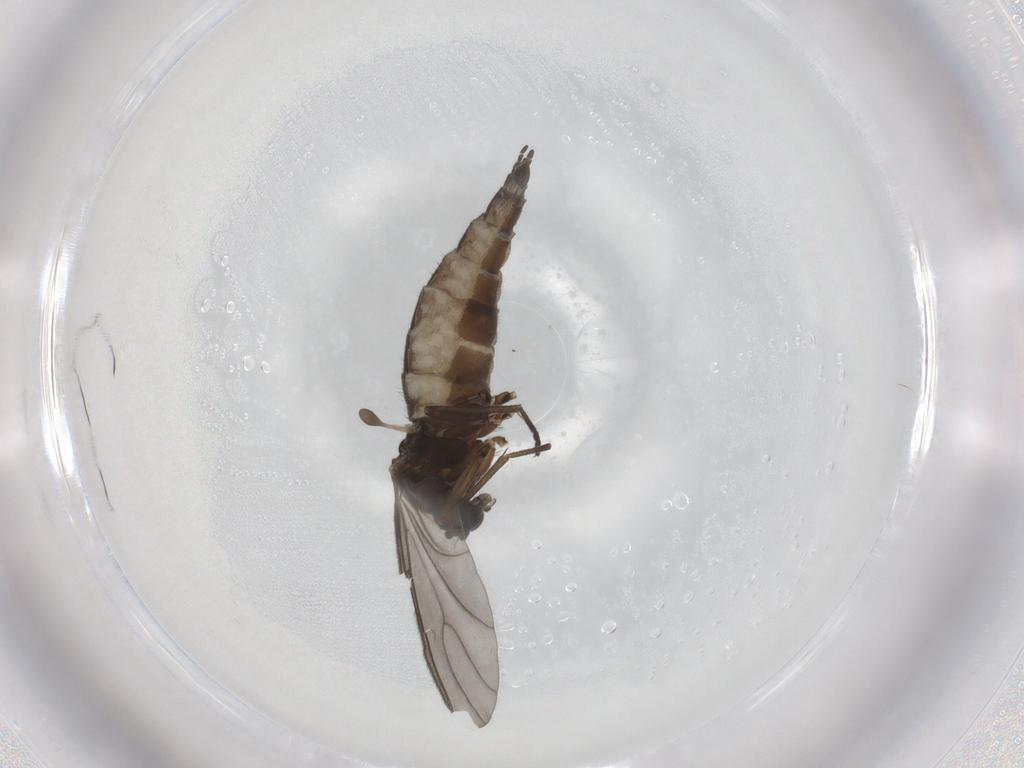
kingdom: Animalia
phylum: Arthropoda
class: Insecta
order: Diptera
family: Sciaridae
